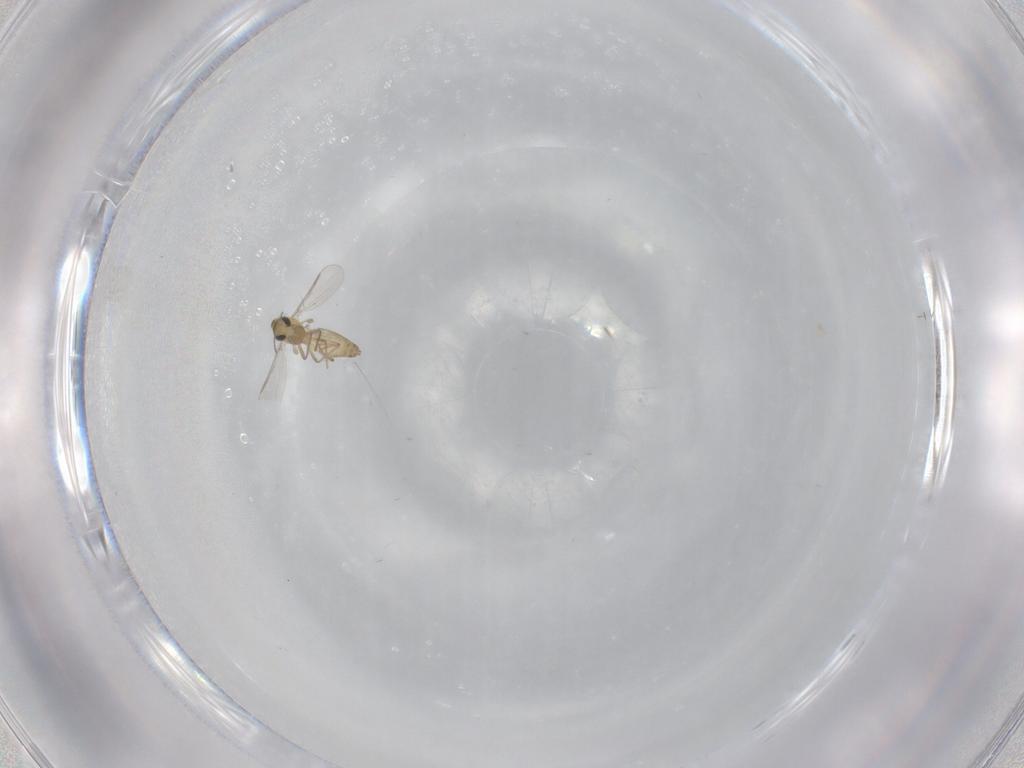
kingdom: Animalia
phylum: Arthropoda
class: Insecta
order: Diptera
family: Chironomidae
